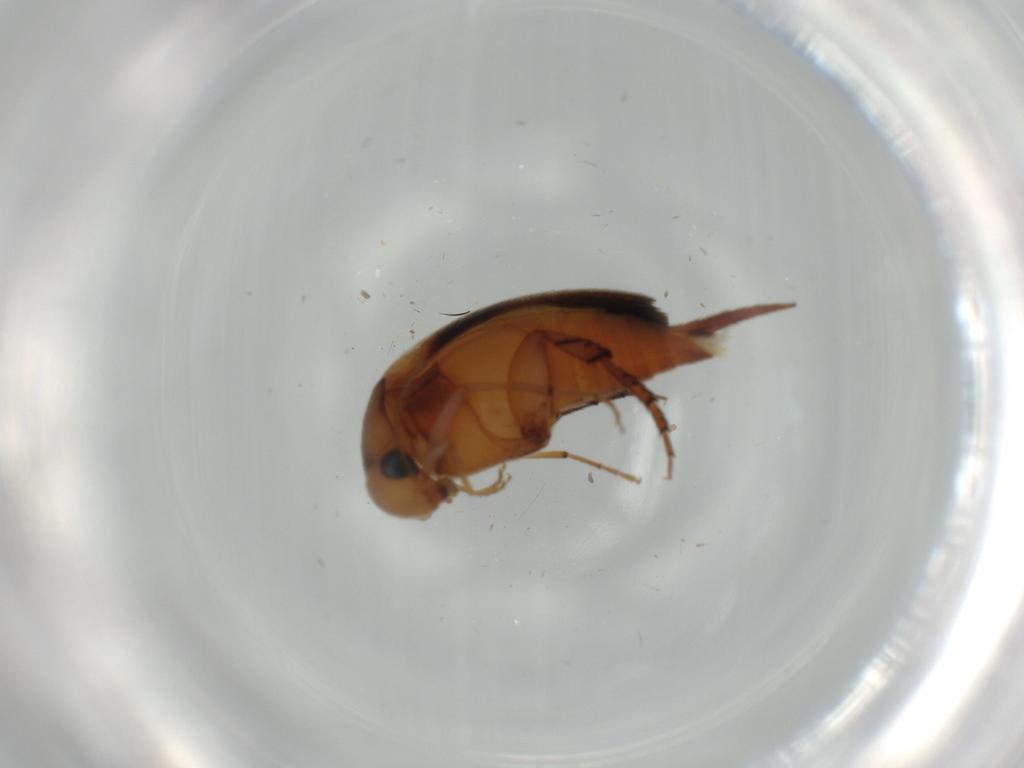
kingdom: Animalia
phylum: Arthropoda
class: Insecta
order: Coleoptera
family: Mordellidae
